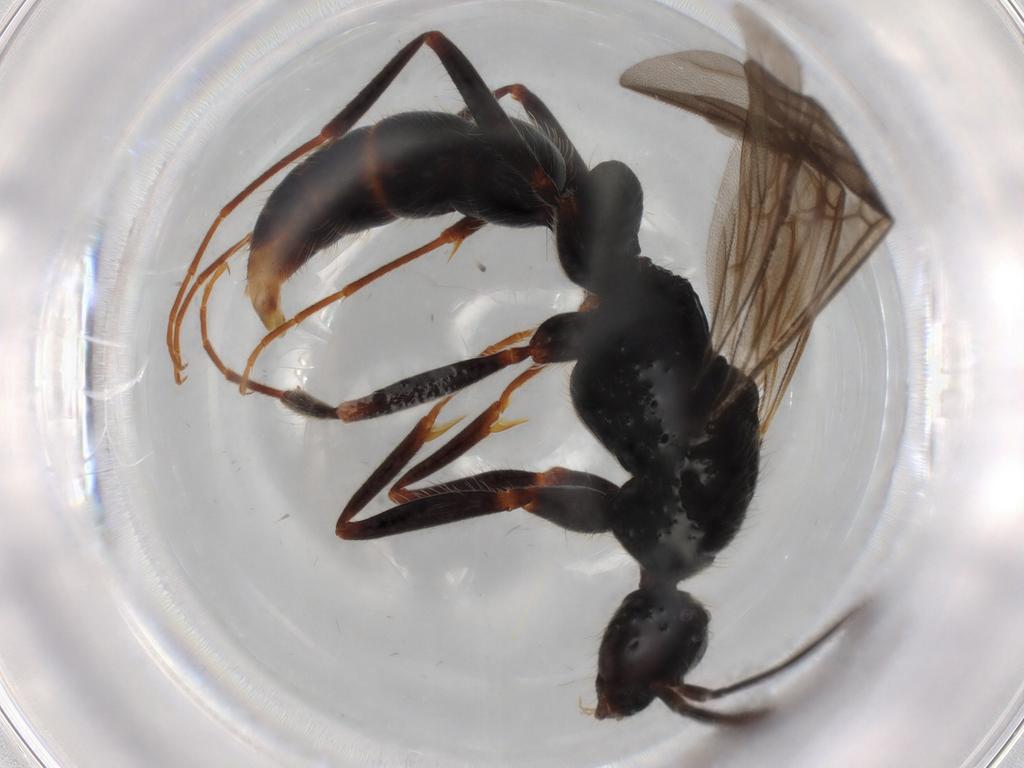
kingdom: Animalia
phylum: Arthropoda
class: Insecta
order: Hymenoptera
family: Formicidae
